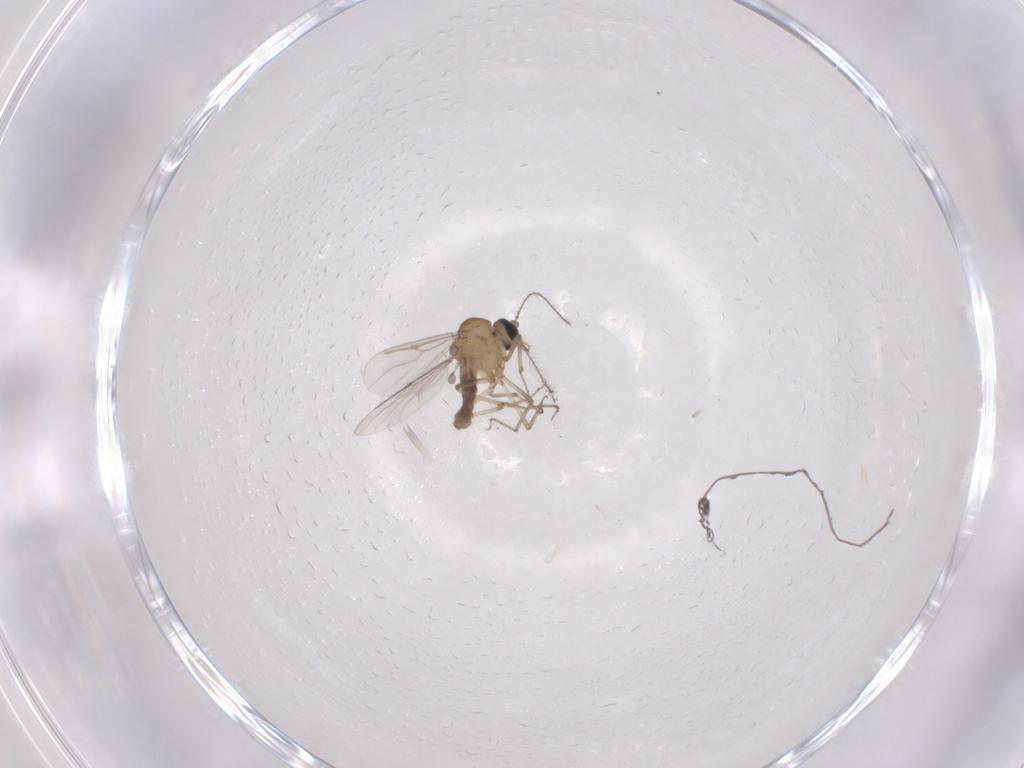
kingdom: Animalia
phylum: Arthropoda
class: Insecta
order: Diptera
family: Ceratopogonidae
